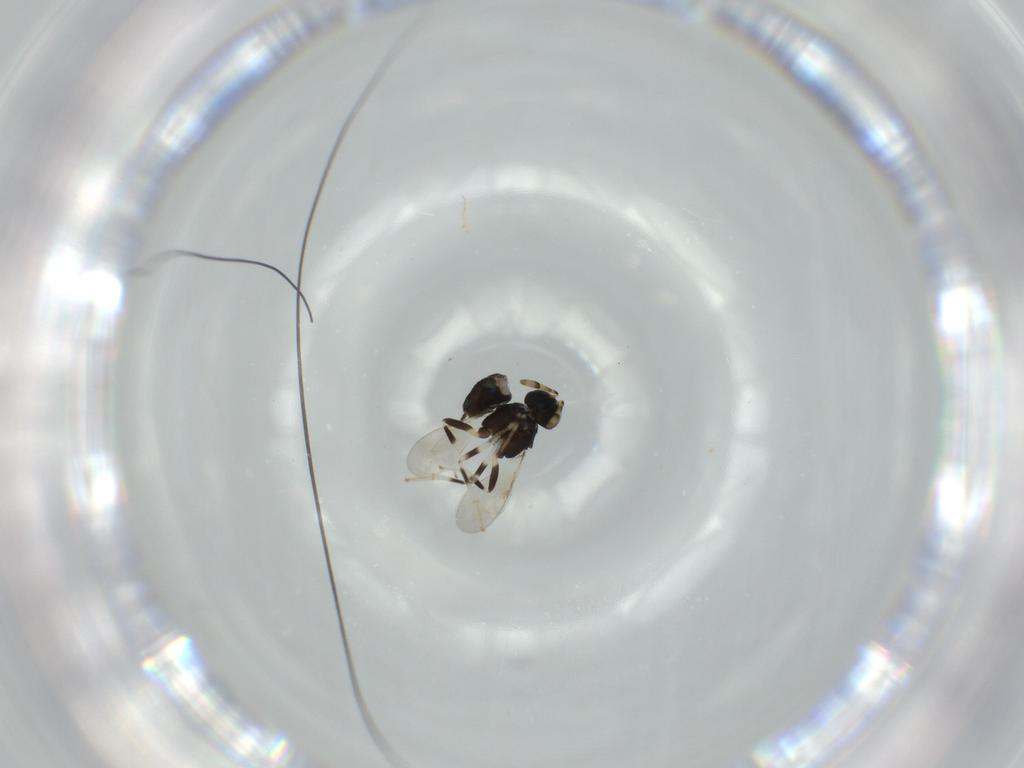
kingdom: Animalia
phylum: Arthropoda
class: Insecta
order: Hymenoptera
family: Encyrtidae
